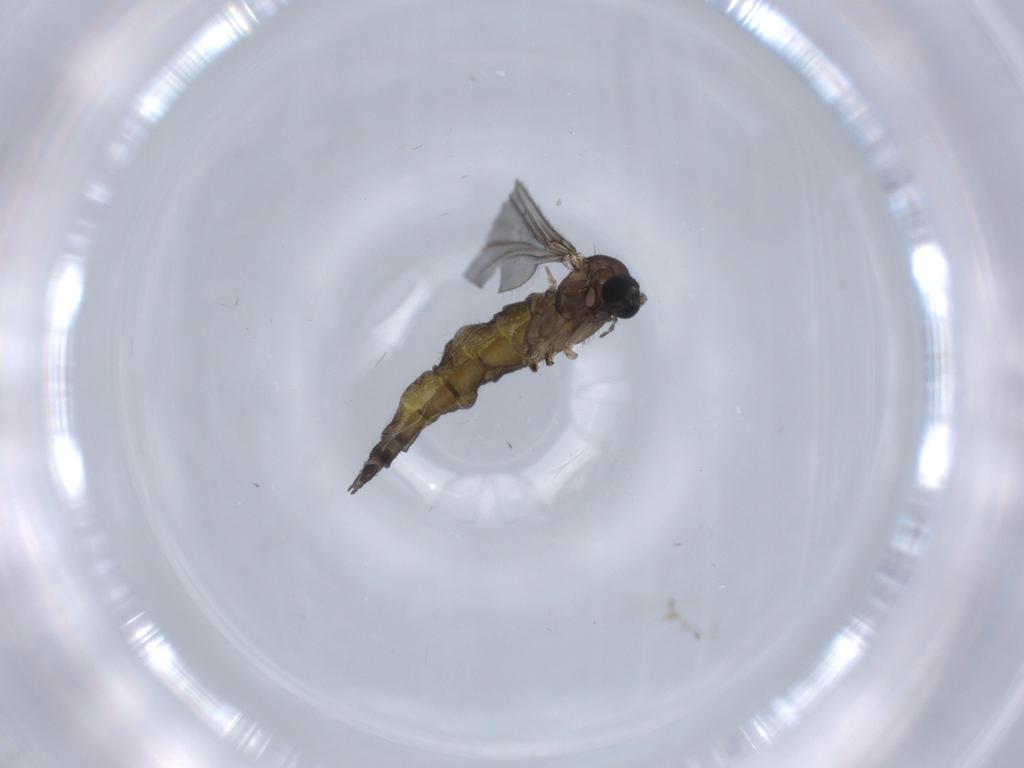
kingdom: Animalia
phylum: Arthropoda
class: Insecta
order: Diptera
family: Sciaridae
